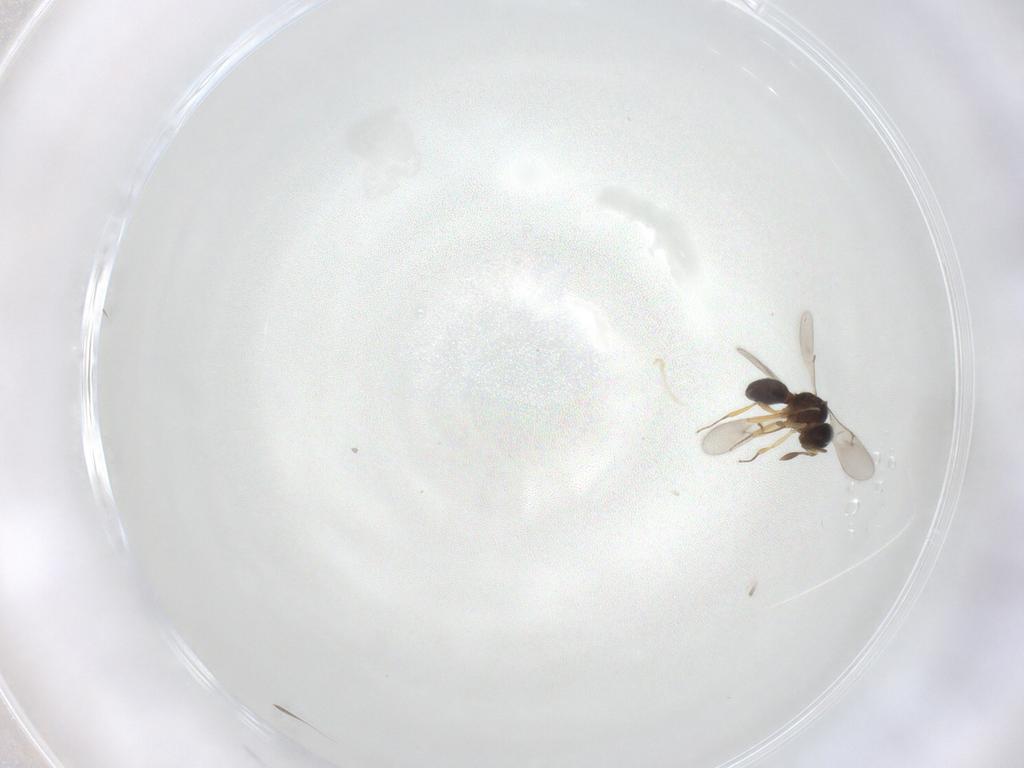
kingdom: Animalia
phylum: Arthropoda
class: Insecta
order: Hymenoptera
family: Scelionidae
